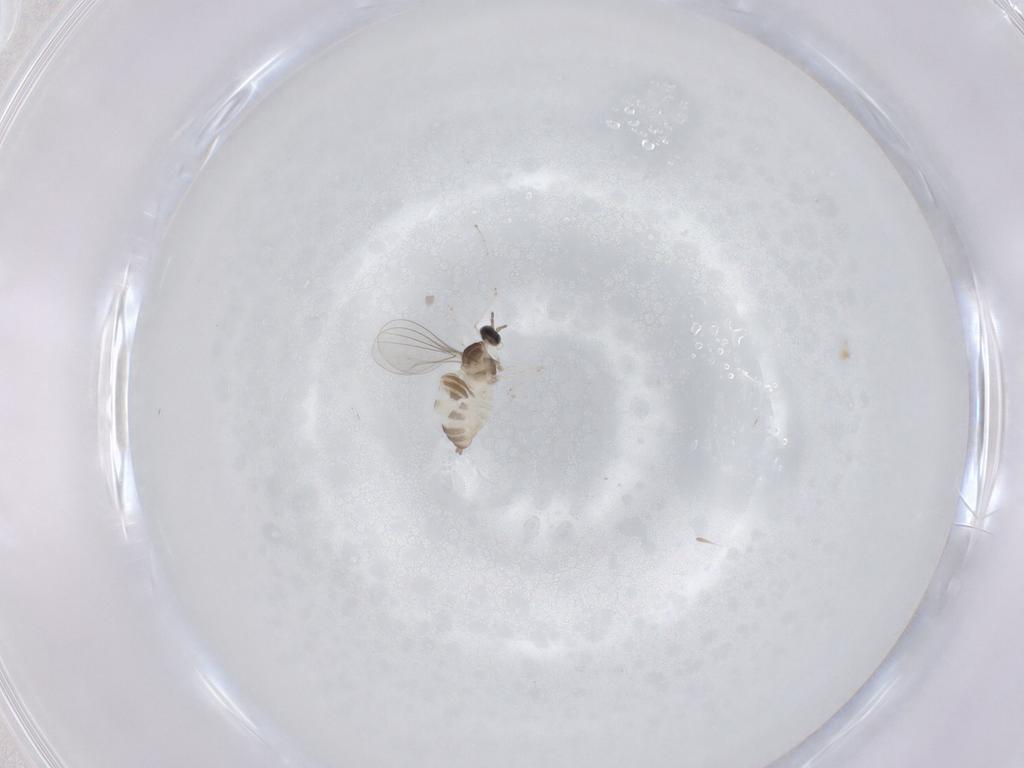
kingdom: Animalia
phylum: Arthropoda
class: Insecta
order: Diptera
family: Cecidomyiidae
